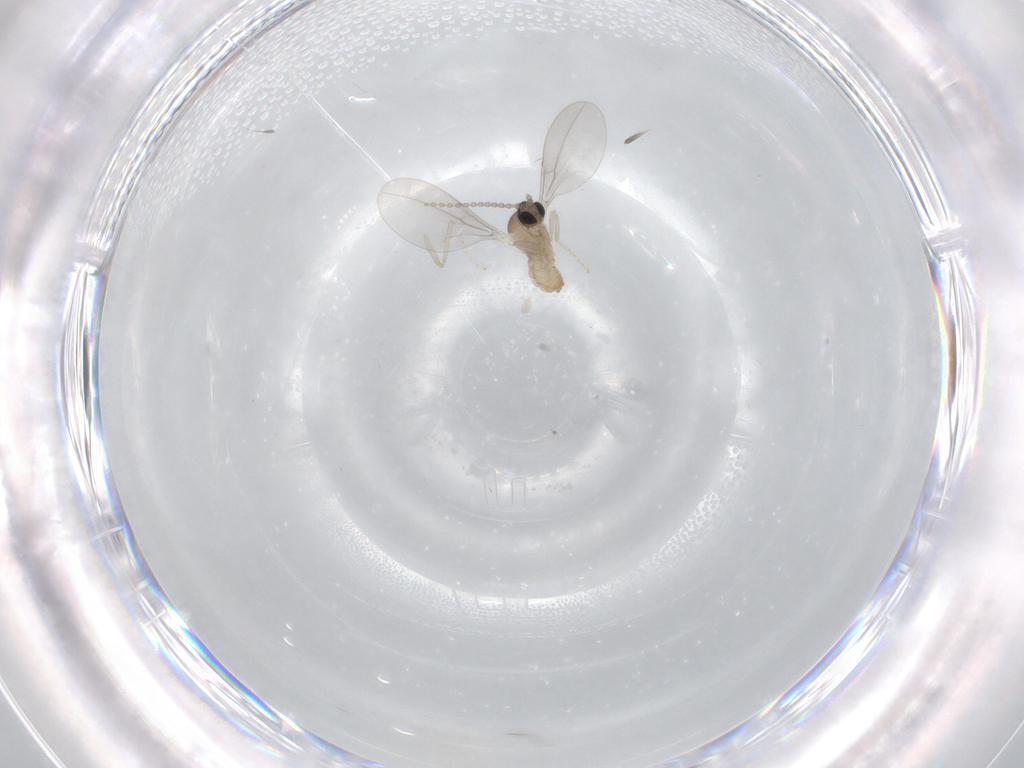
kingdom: Animalia
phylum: Arthropoda
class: Insecta
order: Diptera
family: Cecidomyiidae
